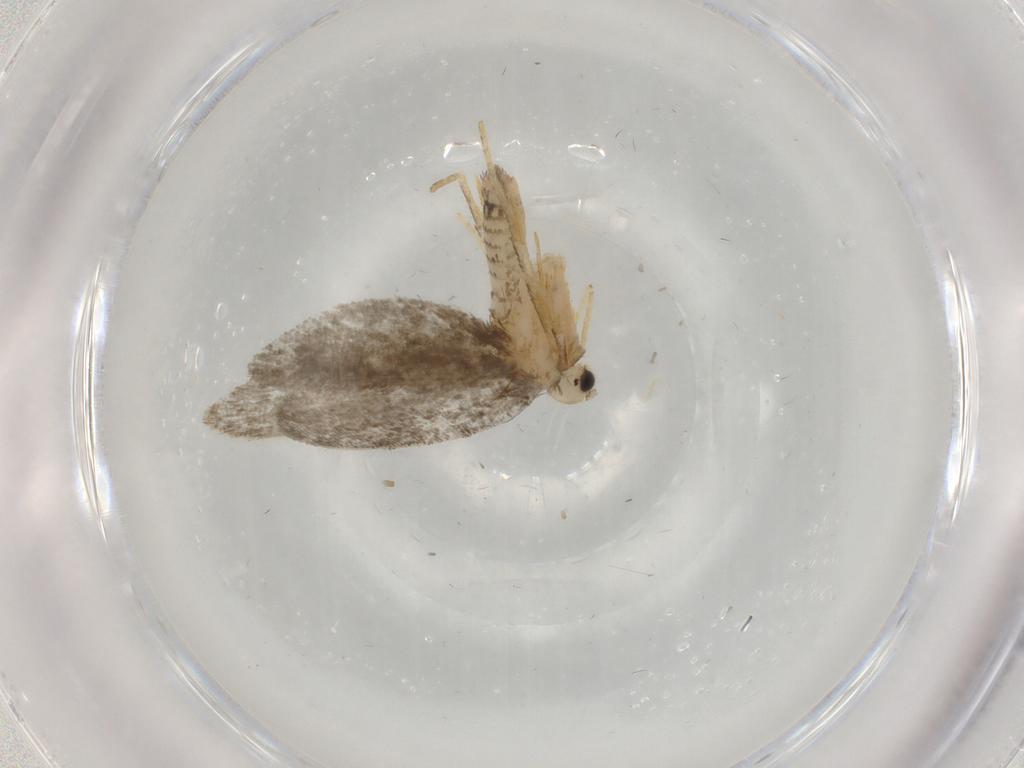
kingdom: Animalia
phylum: Arthropoda
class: Insecta
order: Lepidoptera
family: Psychidae
